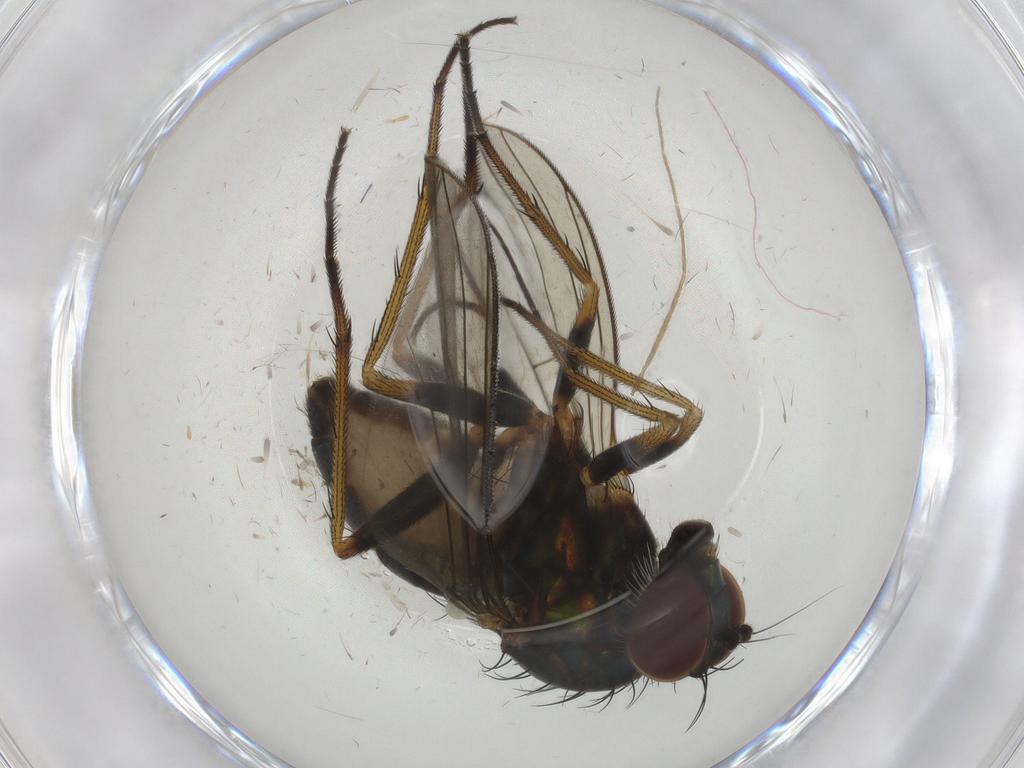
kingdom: Animalia
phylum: Arthropoda
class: Insecta
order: Diptera
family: Dolichopodidae
